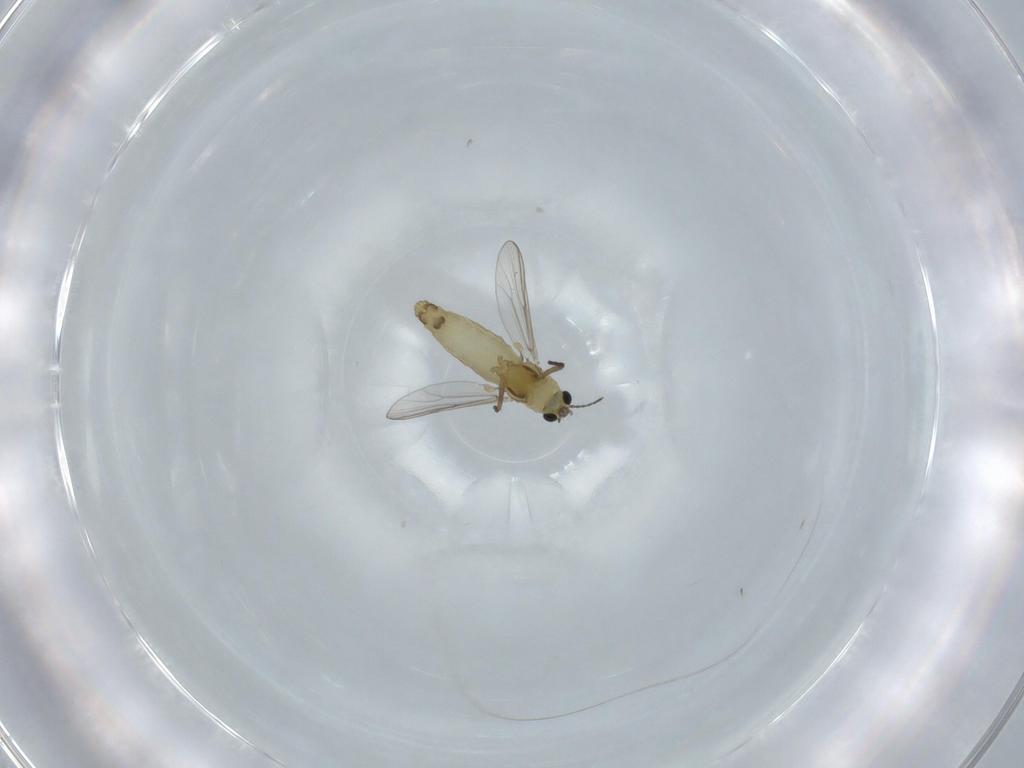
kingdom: Animalia
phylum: Arthropoda
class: Insecta
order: Diptera
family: Chironomidae
